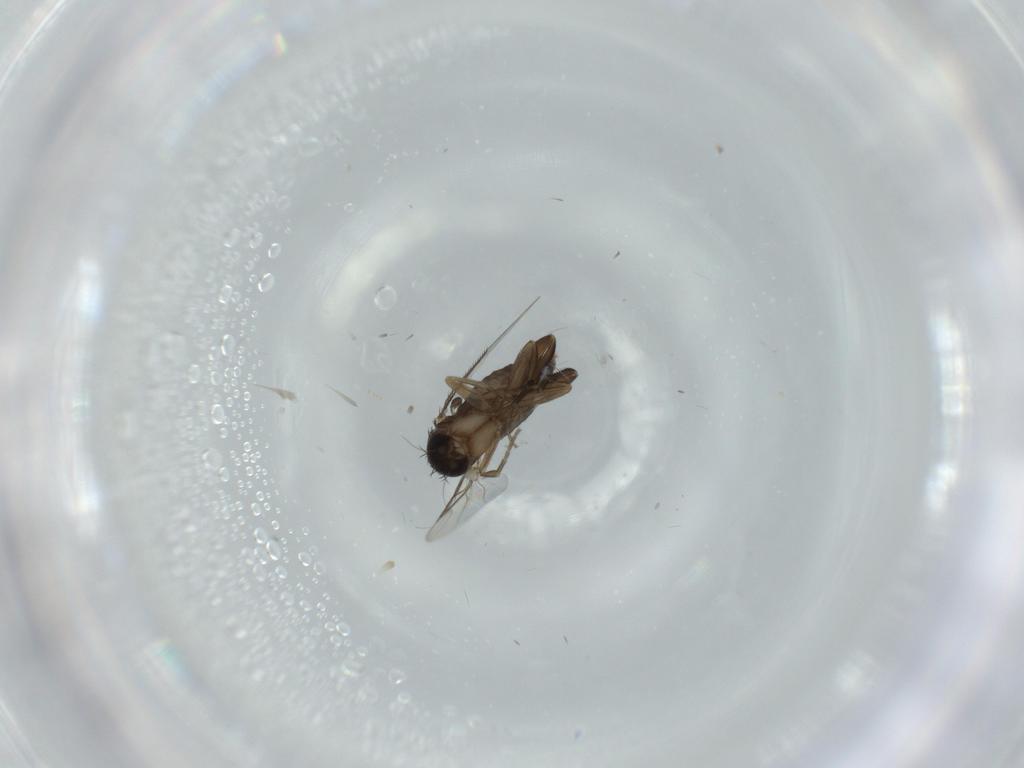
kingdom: Animalia
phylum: Arthropoda
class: Insecta
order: Diptera
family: Phoridae
